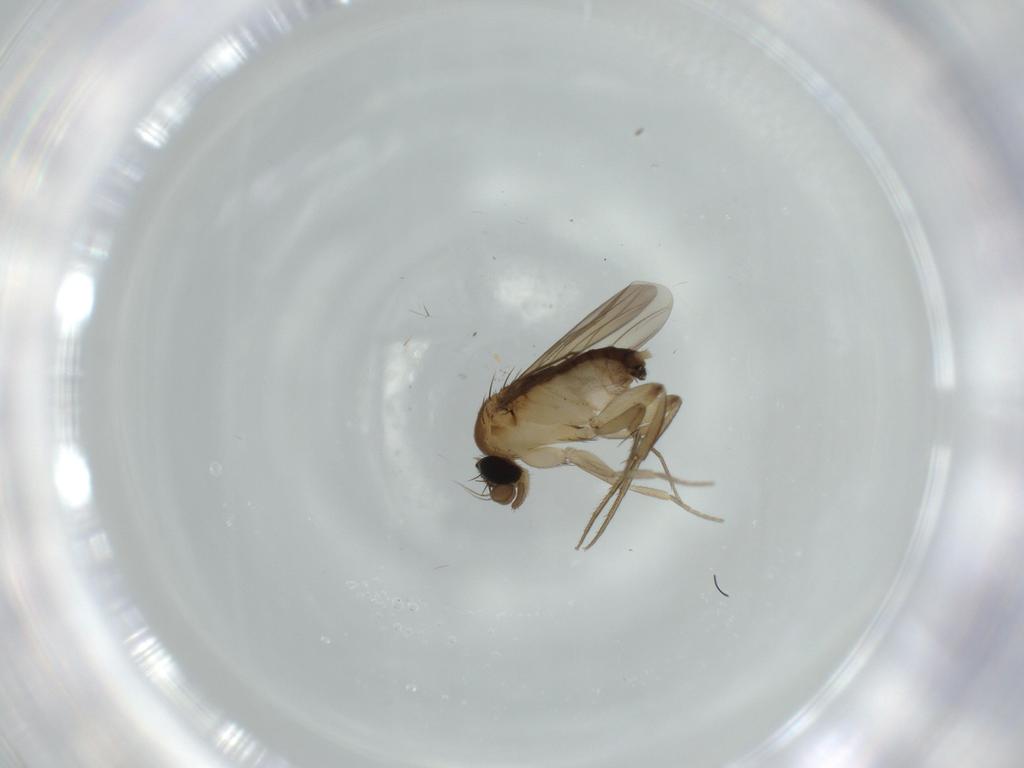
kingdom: Animalia
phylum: Arthropoda
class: Insecta
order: Diptera
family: Phoridae
